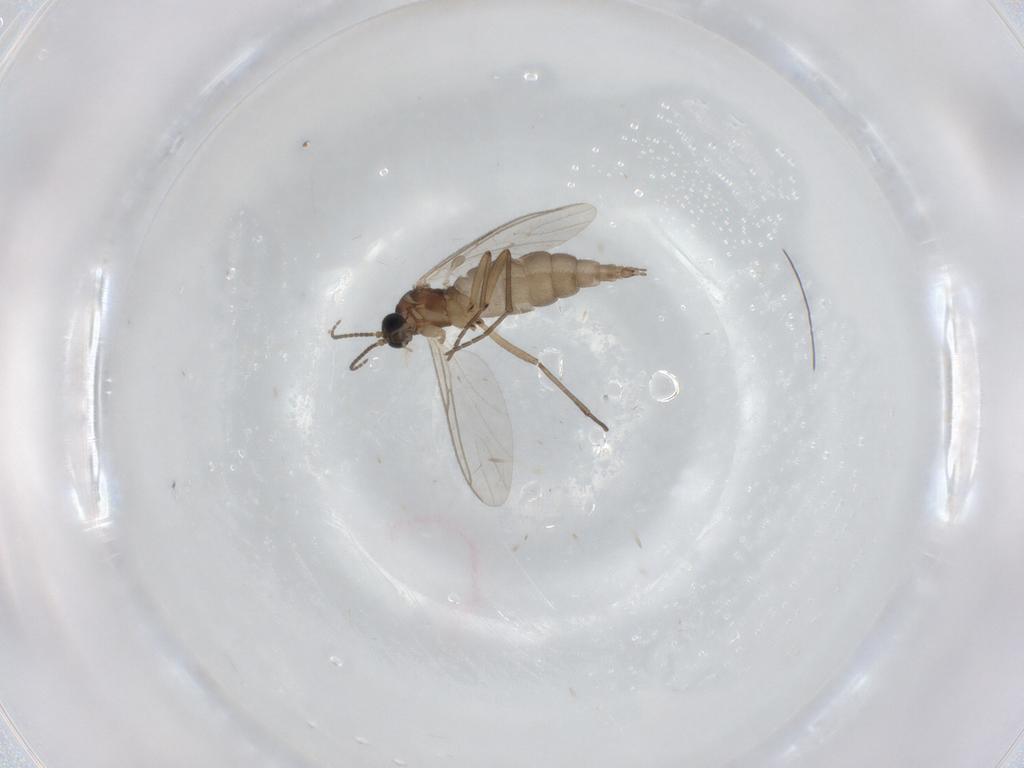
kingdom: Animalia
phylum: Arthropoda
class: Insecta
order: Diptera
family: Sciaridae
